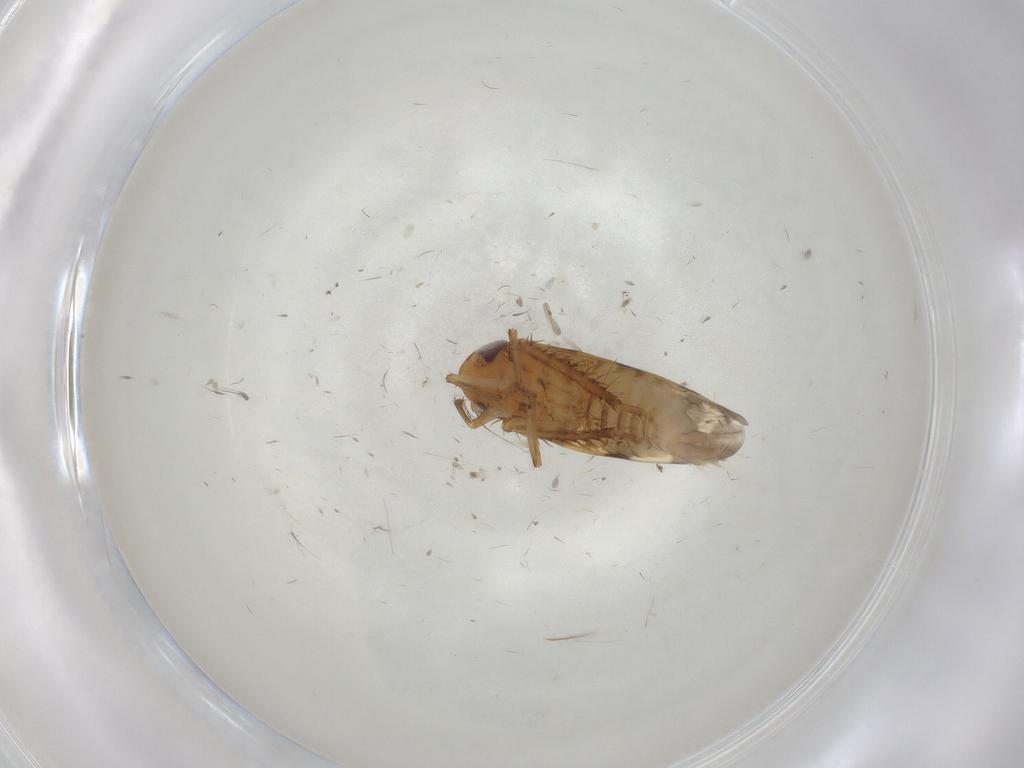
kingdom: Animalia
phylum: Arthropoda
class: Insecta
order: Hemiptera
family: Cicadellidae
